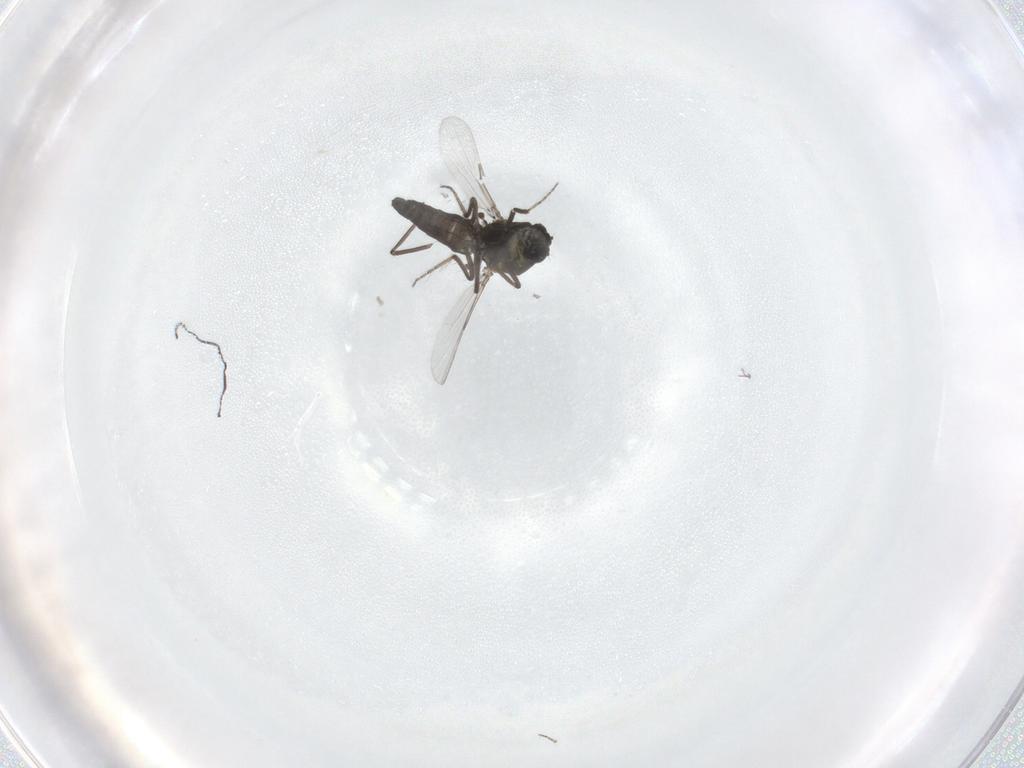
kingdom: Animalia
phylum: Arthropoda
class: Insecta
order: Diptera
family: Ceratopogonidae
